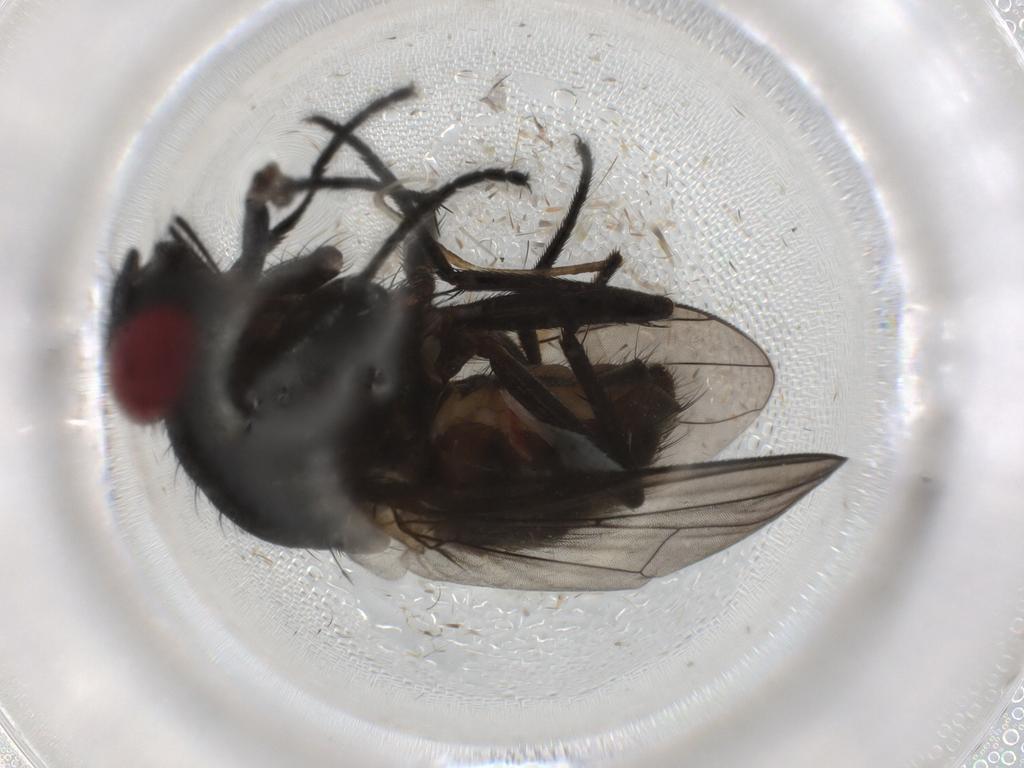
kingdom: Animalia
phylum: Arthropoda
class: Insecta
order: Diptera
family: Muscidae
